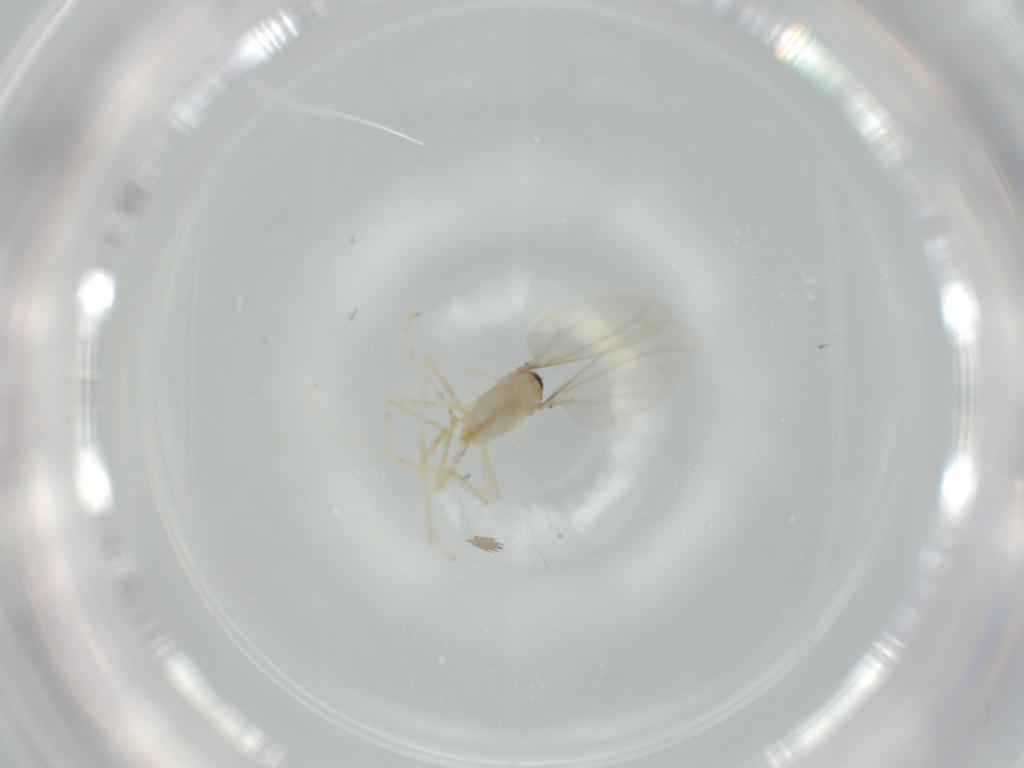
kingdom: Animalia
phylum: Arthropoda
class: Insecta
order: Diptera
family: Cecidomyiidae
